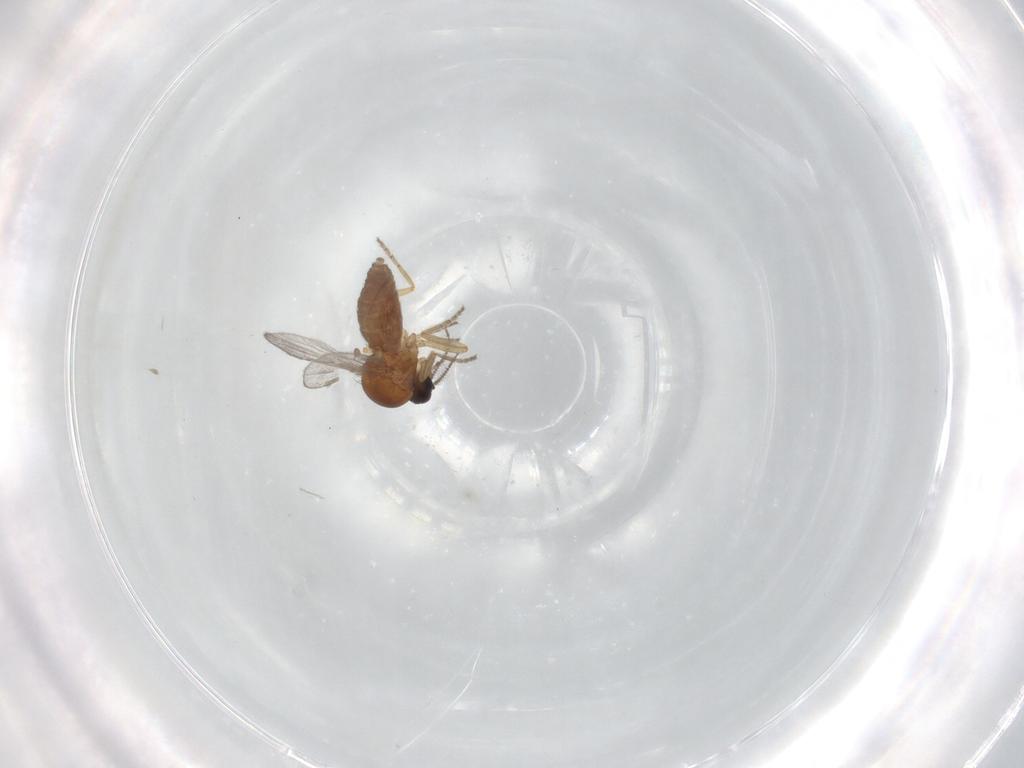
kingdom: Animalia
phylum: Arthropoda
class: Insecta
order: Diptera
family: Ceratopogonidae
